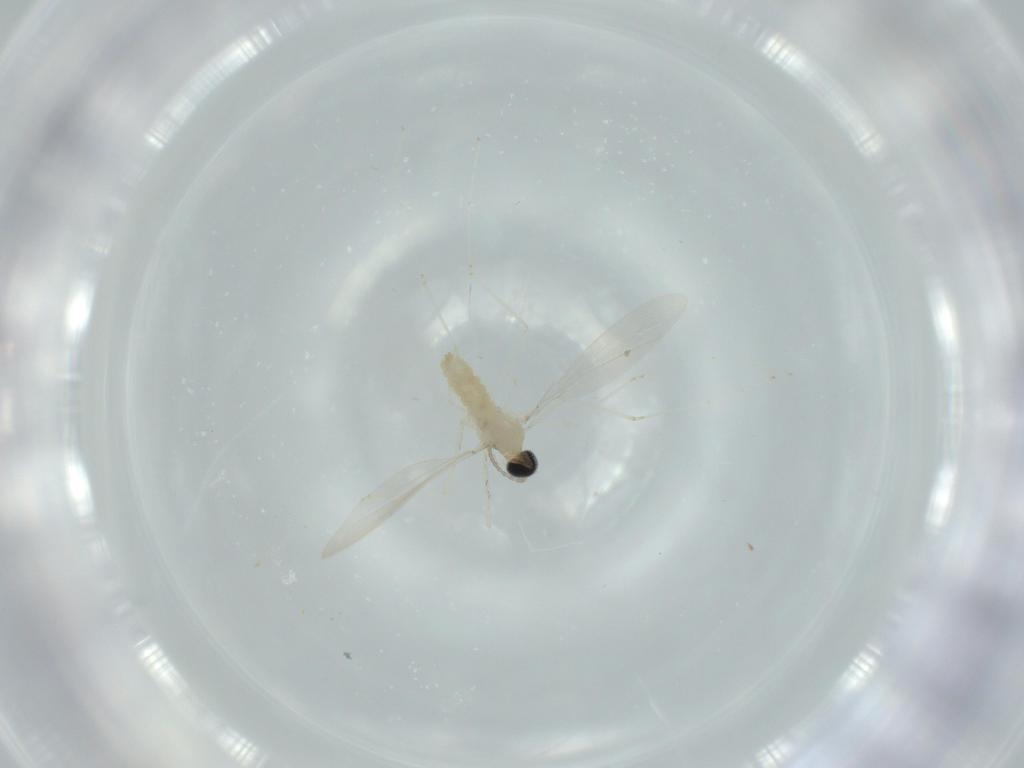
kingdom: Animalia
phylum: Arthropoda
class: Insecta
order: Diptera
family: Cecidomyiidae
